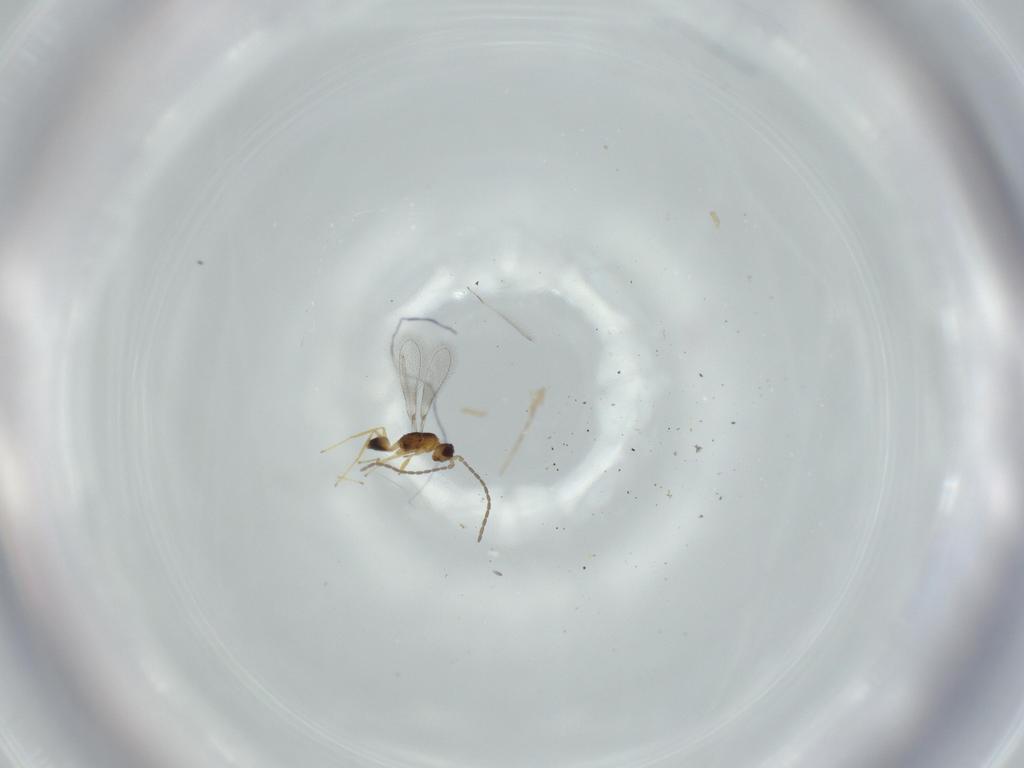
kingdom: Animalia
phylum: Arthropoda
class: Insecta
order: Hymenoptera
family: Mymaridae
